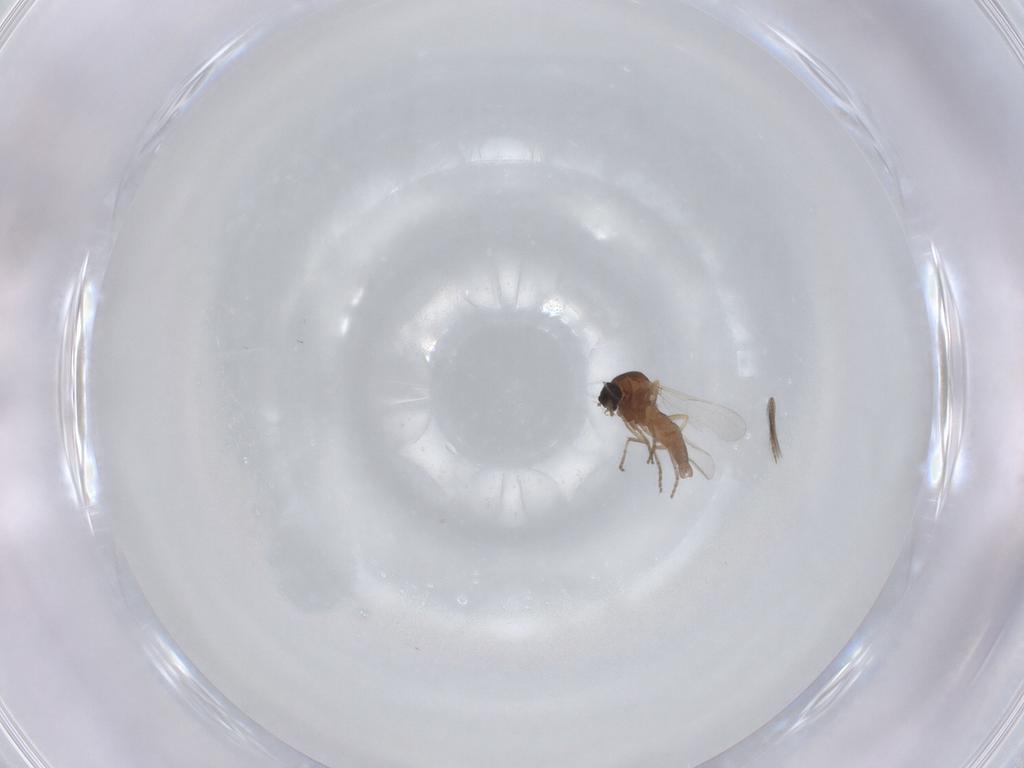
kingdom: Animalia
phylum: Arthropoda
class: Insecta
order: Diptera
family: Ceratopogonidae
